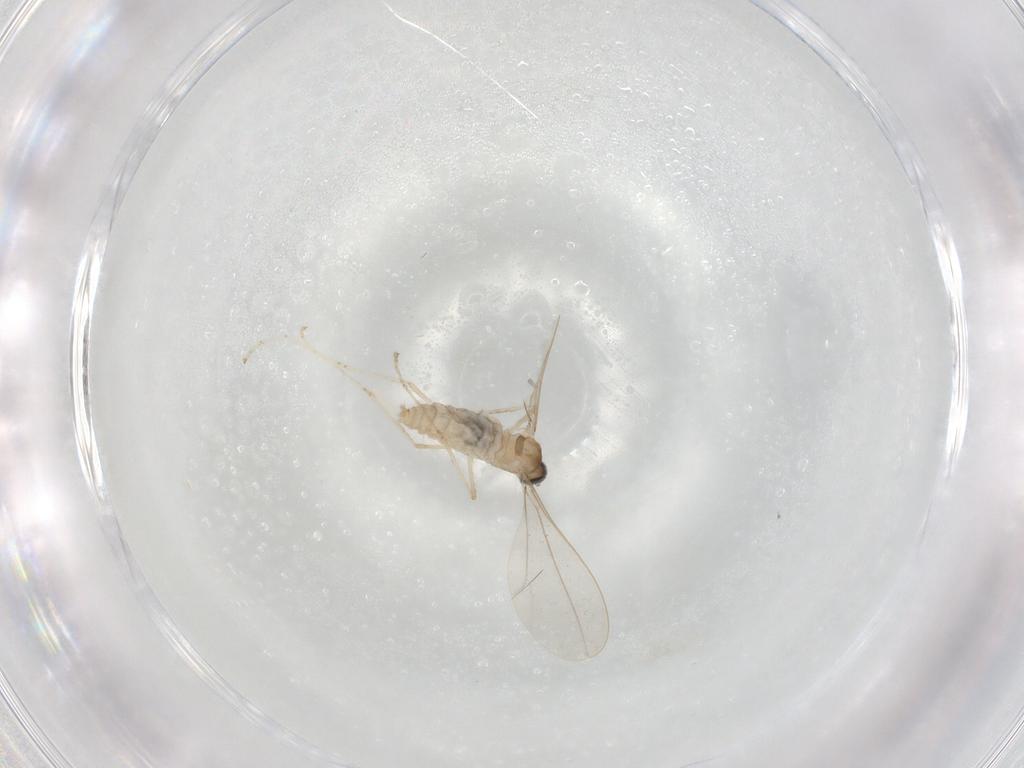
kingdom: Animalia
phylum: Arthropoda
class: Insecta
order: Diptera
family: Cecidomyiidae
